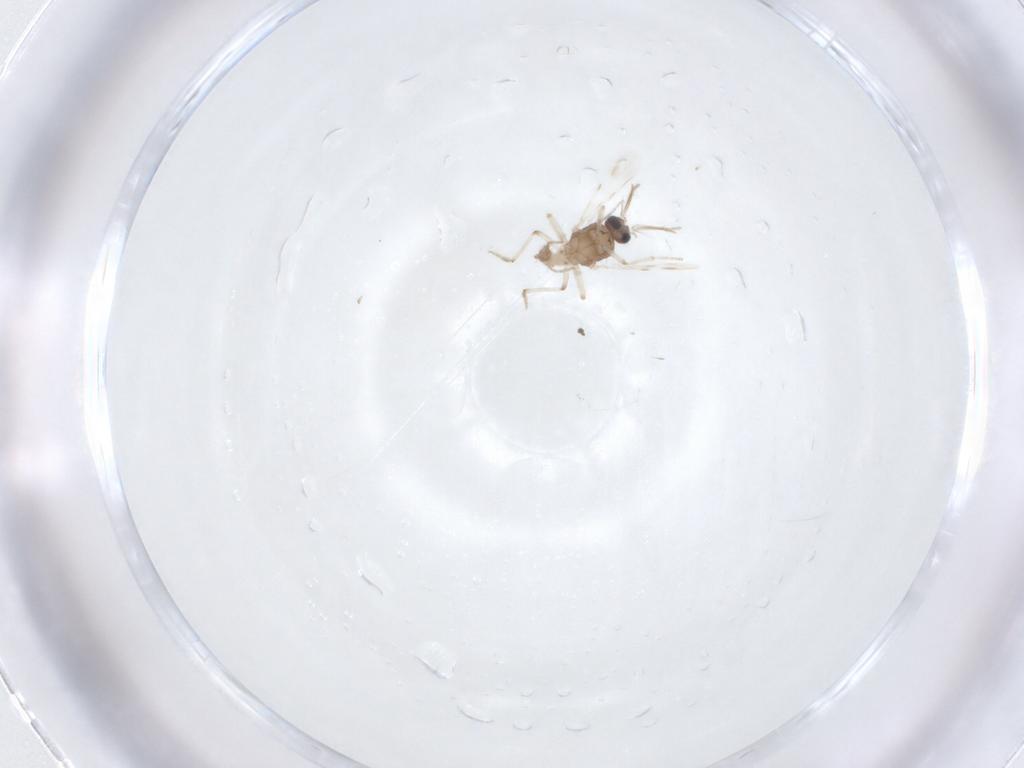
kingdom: Animalia
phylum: Arthropoda
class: Insecta
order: Diptera
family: Ceratopogonidae
